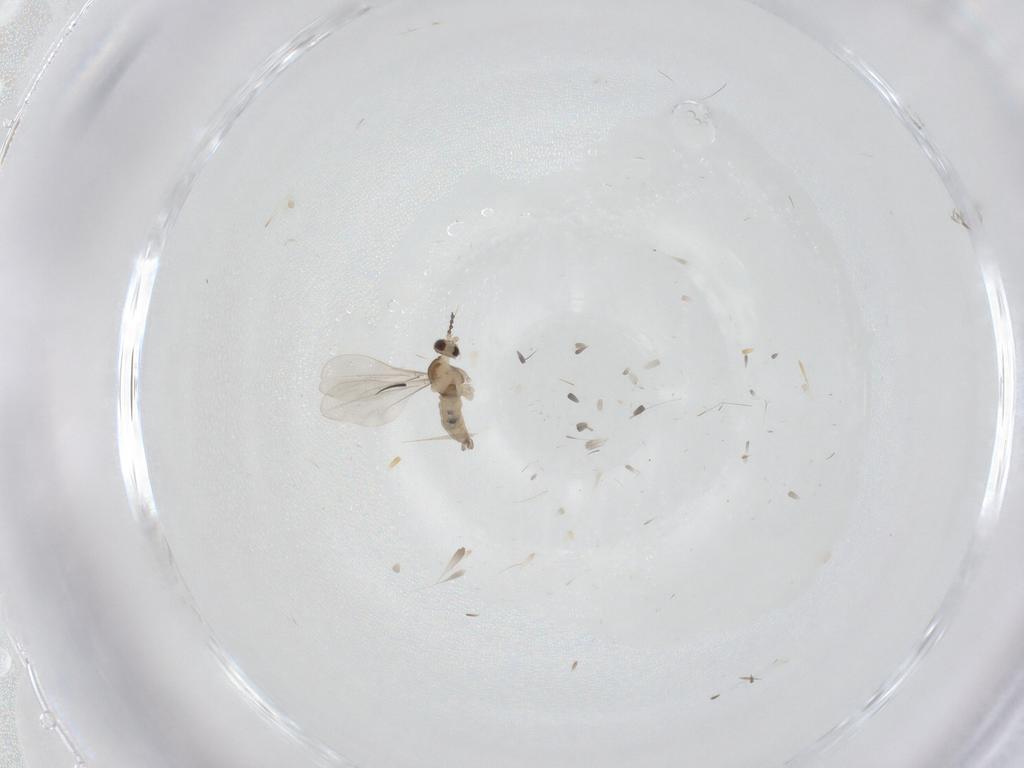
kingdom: Animalia
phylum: Arthropoda
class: Insecta
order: Diptera
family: Cecidomyiidae
